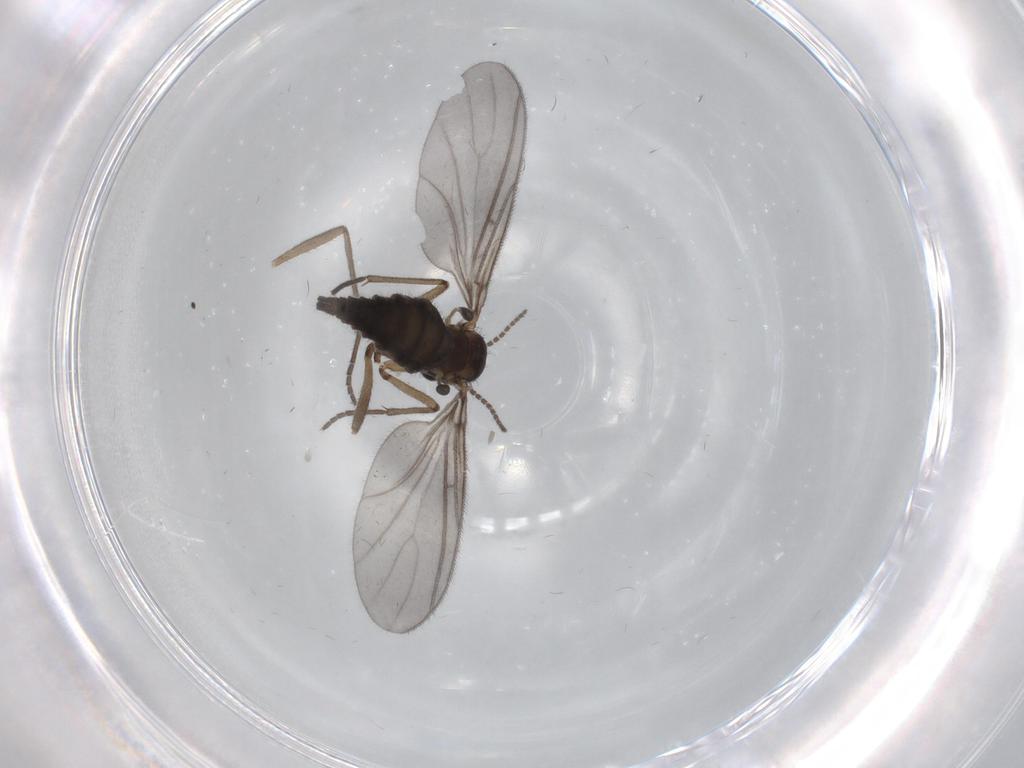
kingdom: Animalia
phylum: Arthropoda
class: Insecta
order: Diptera
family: Sciaridae
